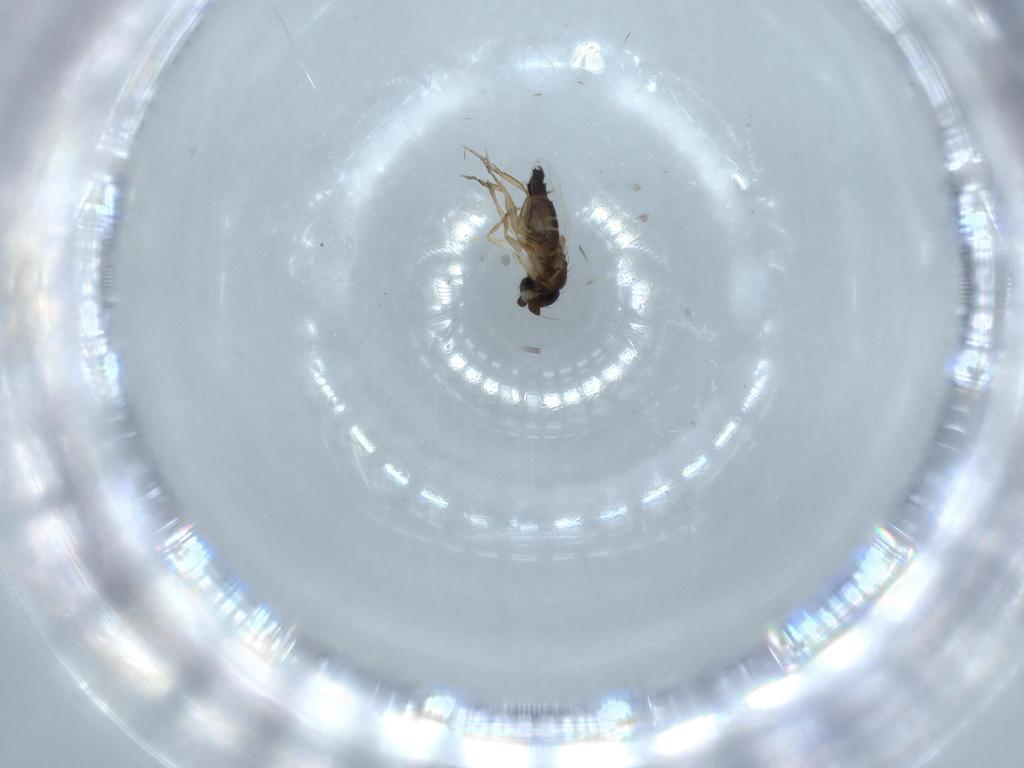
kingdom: Animalia
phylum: Arthropoda
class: Insecta
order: Diptera
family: Phoridae
